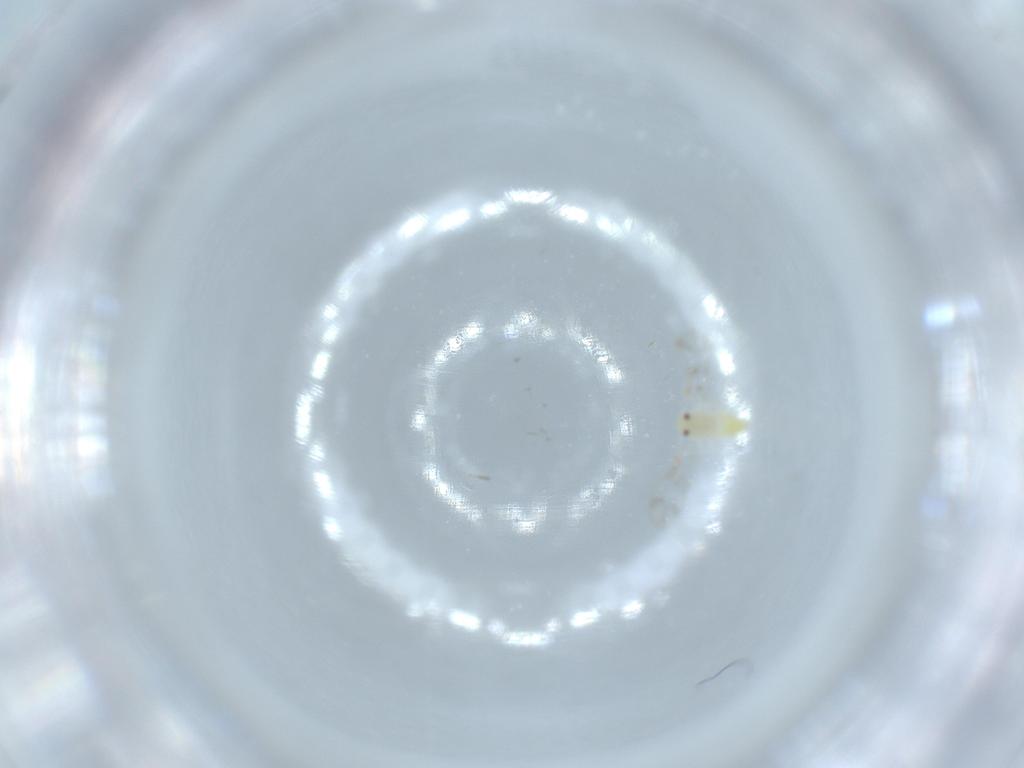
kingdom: Animalia
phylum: Arthropoda
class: Insecta
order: Hemiptera
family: Aleyrodidae
